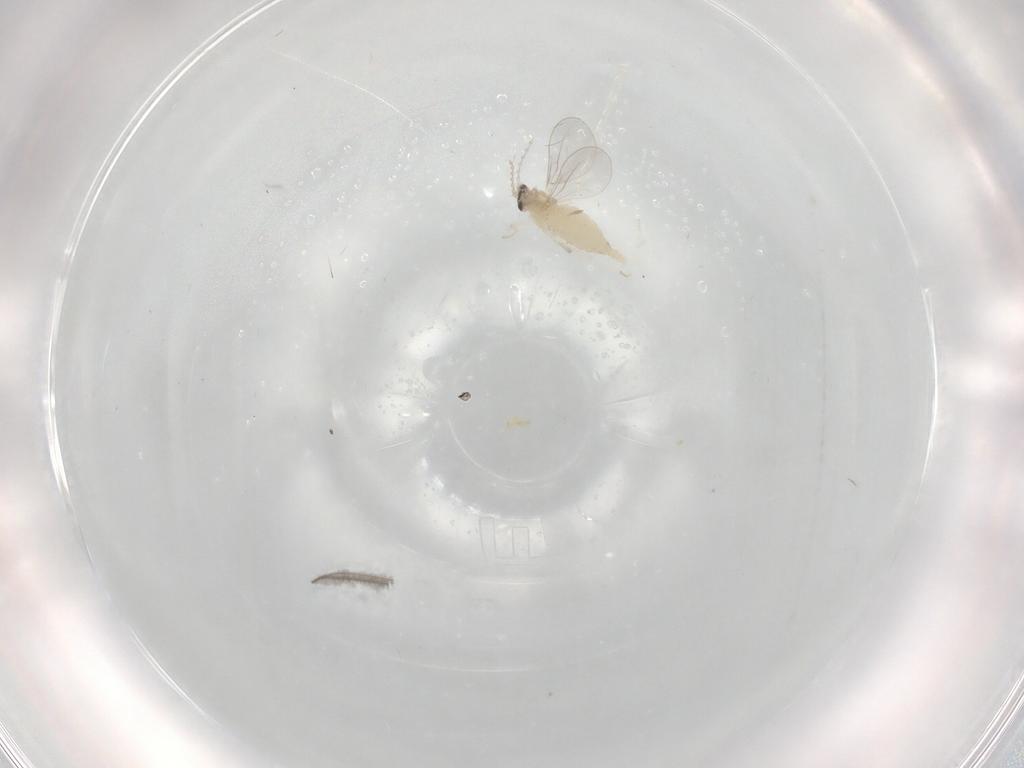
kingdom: Animalia
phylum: Arthropoda
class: Insecta
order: Diptera
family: Cecidomyiidae
